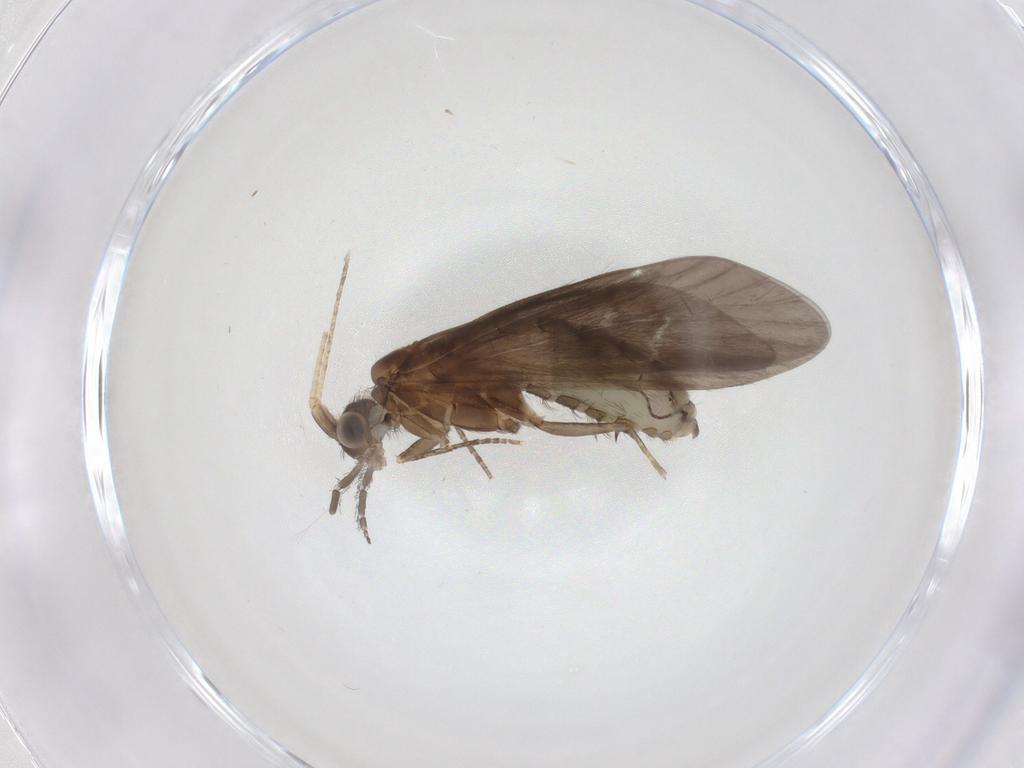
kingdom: Animalia
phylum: Arthropoda
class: Insecta
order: Trichoptera
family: Helicopsychidae
